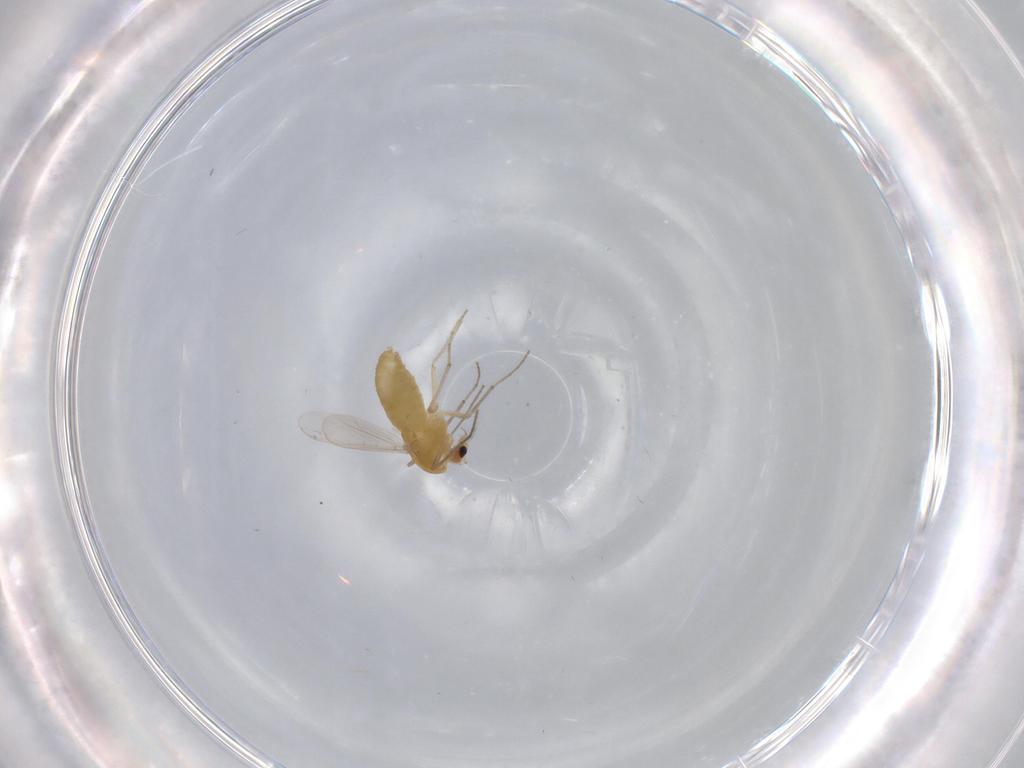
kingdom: Animalia
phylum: Arthropoda
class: Insecta
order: Diptera
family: Chironomidae
